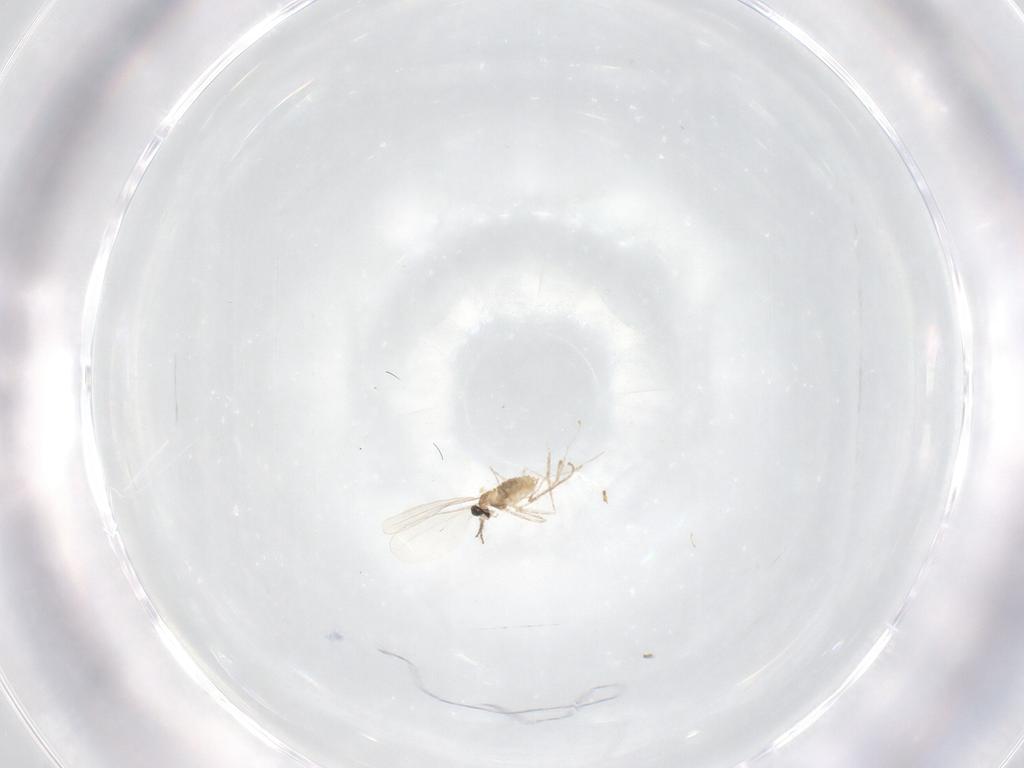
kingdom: Animalia
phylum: Arthropoda
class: Insecta
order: Diptera
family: Cecidomyiidae
